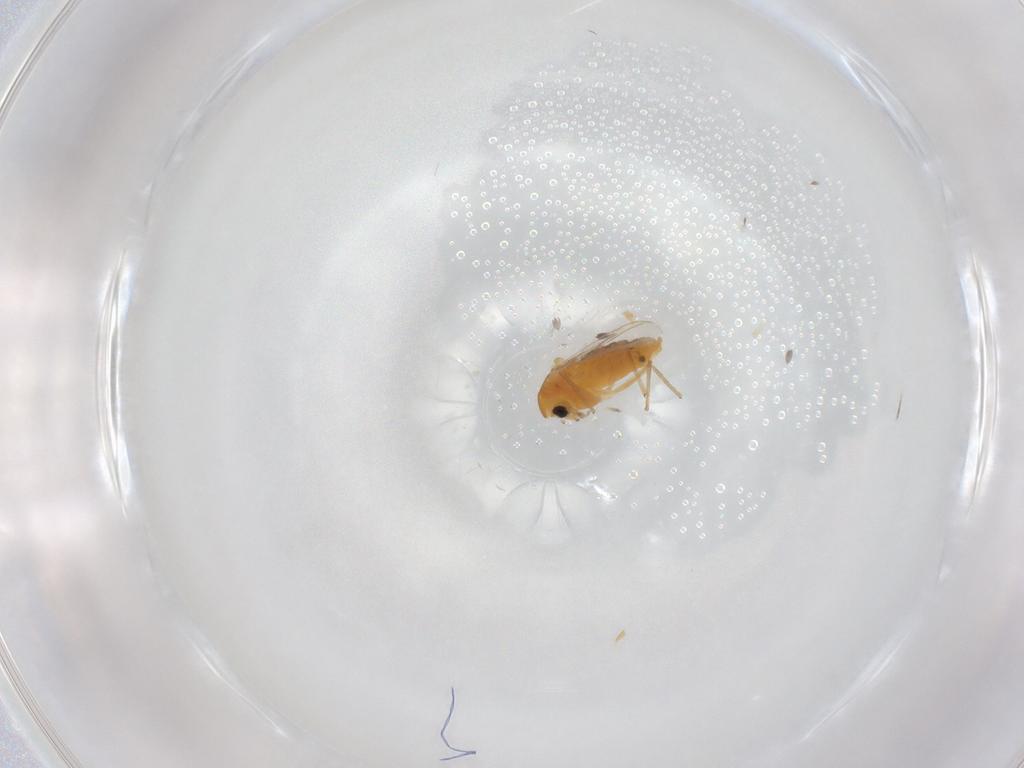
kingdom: Animalia
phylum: Arthropoda
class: Insecta
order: Diptera
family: Chironomidae
